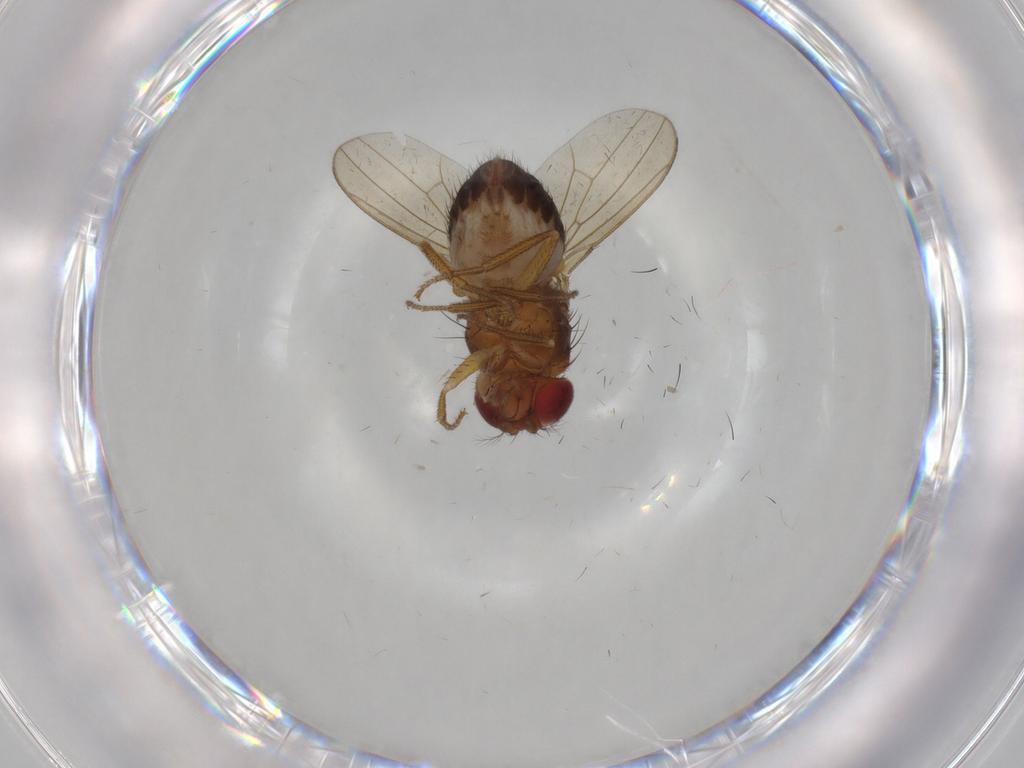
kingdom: Animalia
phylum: Arthropoda
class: Insecta
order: Diptera
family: Drosophilidae
